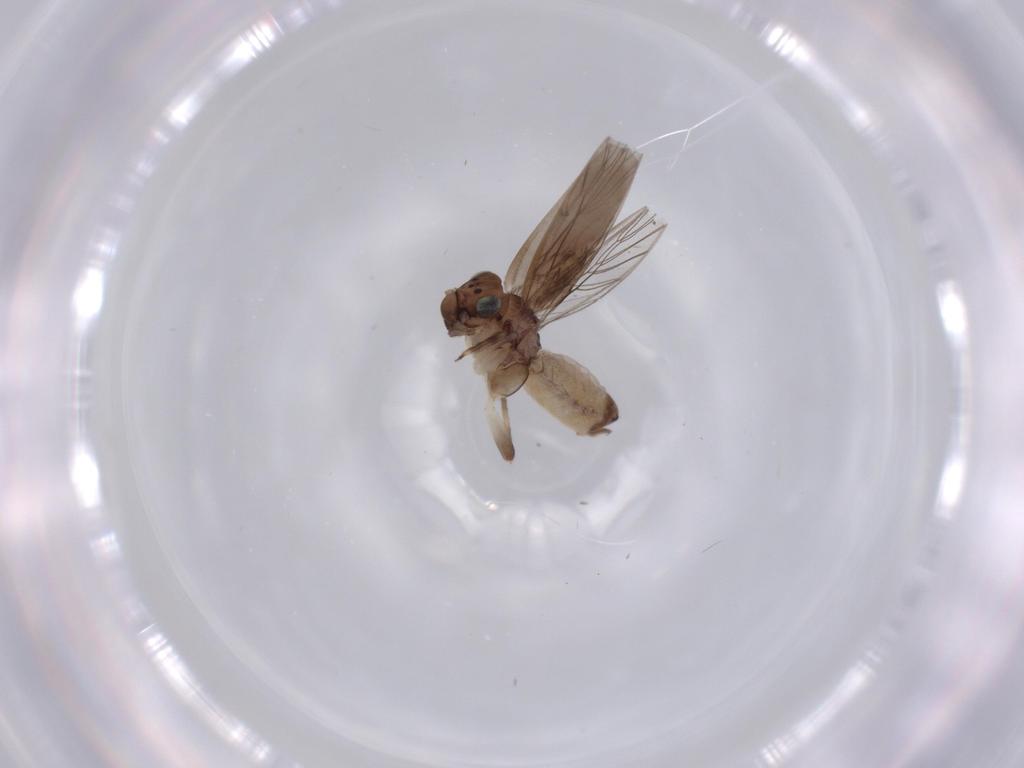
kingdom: Animalia
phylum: Arthropoda
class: Insecta
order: Psocodea
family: Lepidopsocidae
